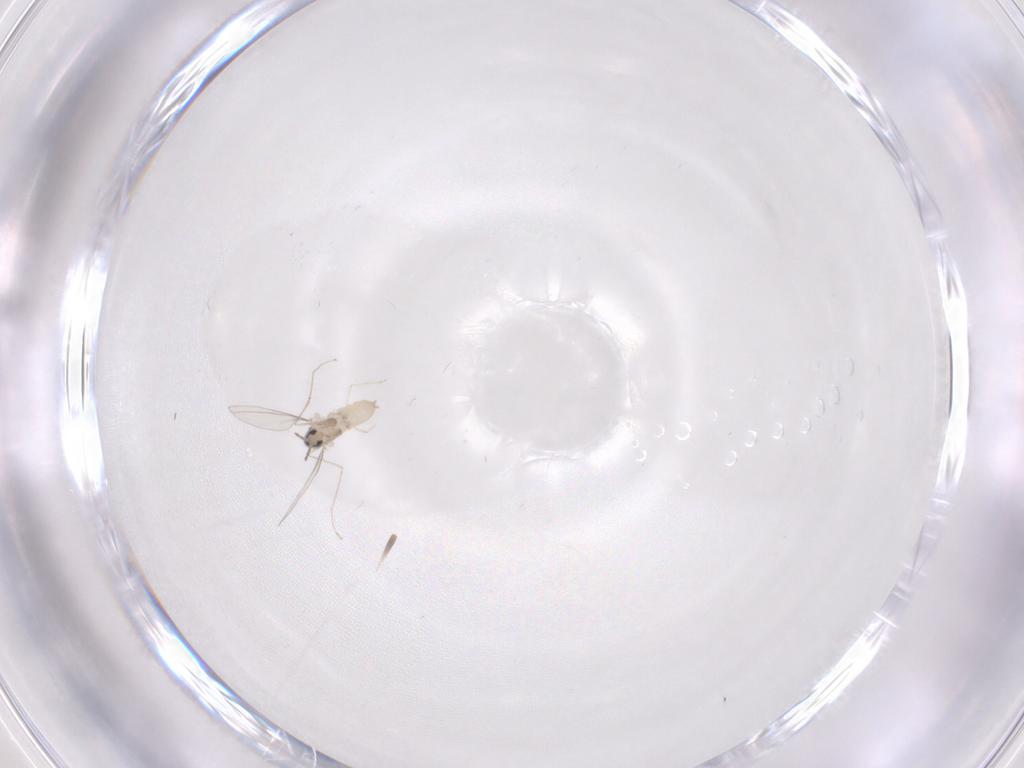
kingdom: Animalia
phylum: Arthropoda
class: Insecta
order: Diptera
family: Cecidomyiidae
